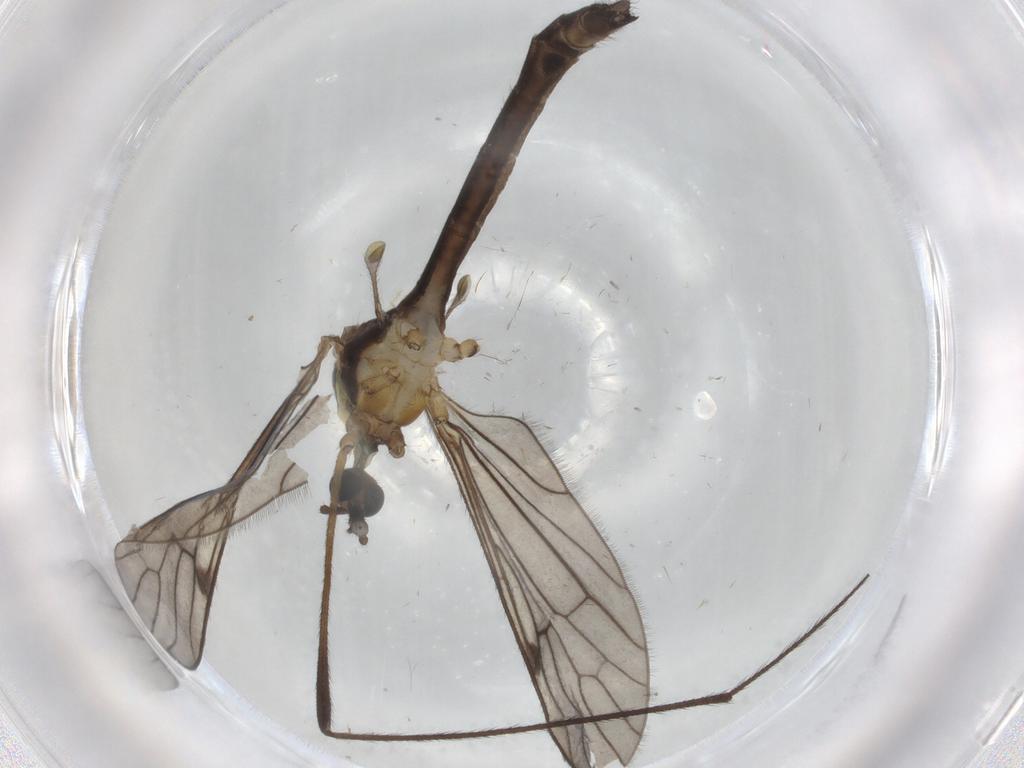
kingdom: Animalia
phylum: Arthropoda
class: Insecta
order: Diptera
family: Limoniidae
